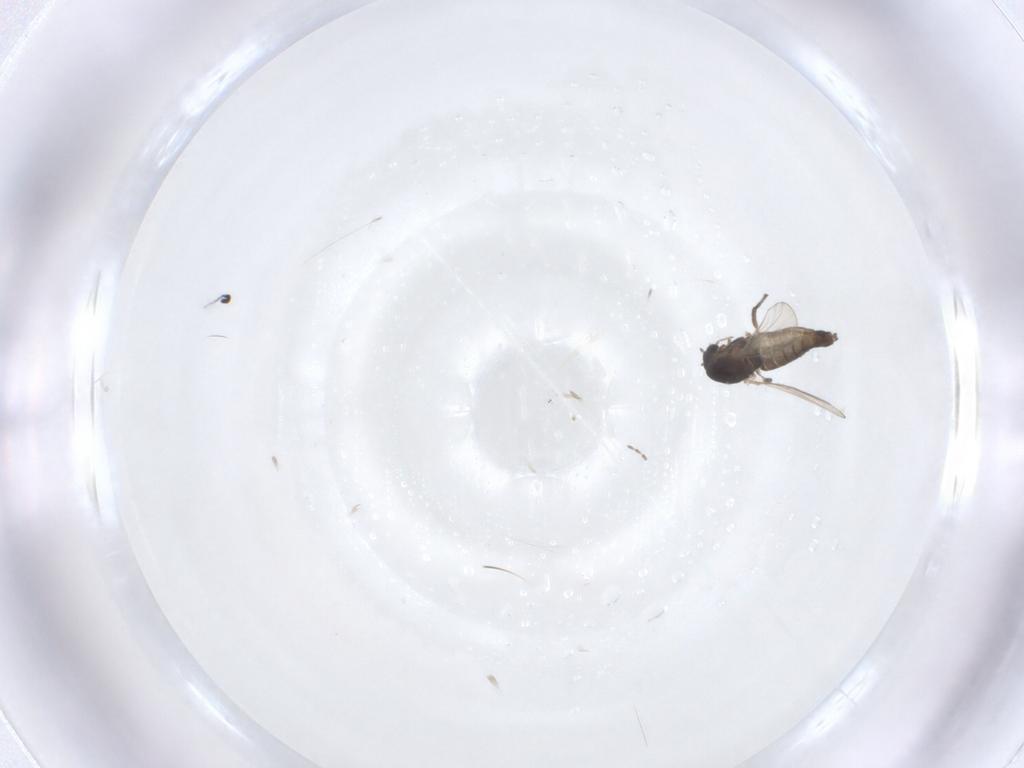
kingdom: Animalia
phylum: Arthropoda
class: Insecta
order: Diptera
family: Chironomidae
